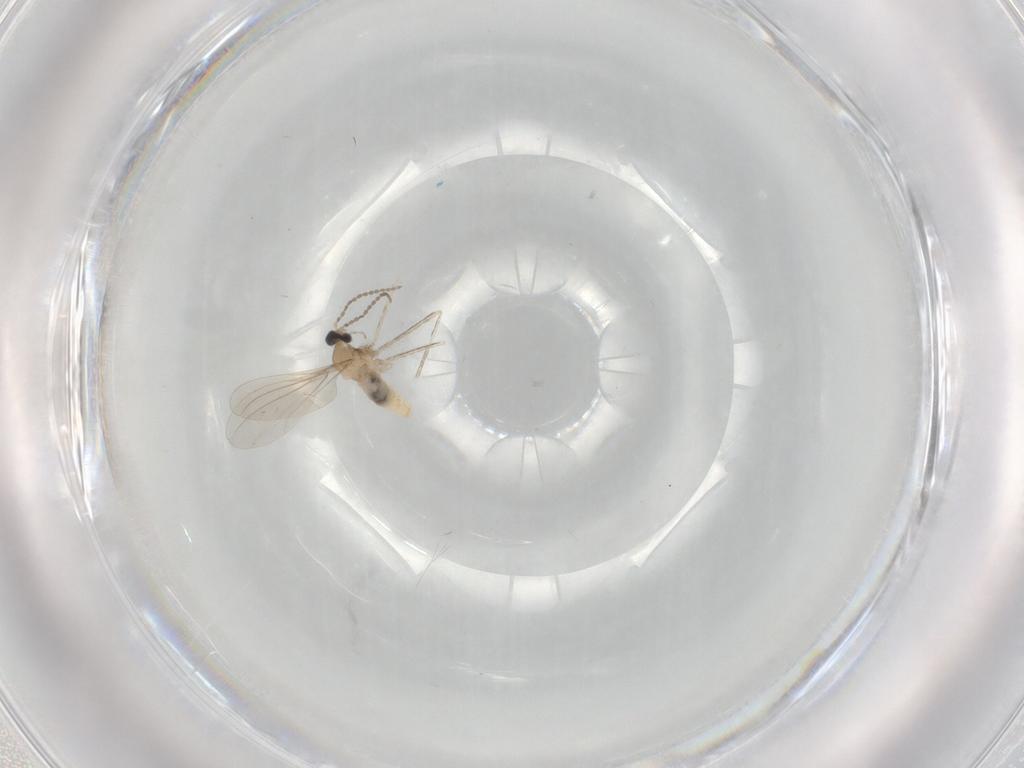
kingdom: Animalia
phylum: Arthropoda
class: Insecta
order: Diptera
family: Cecidomyiidae
